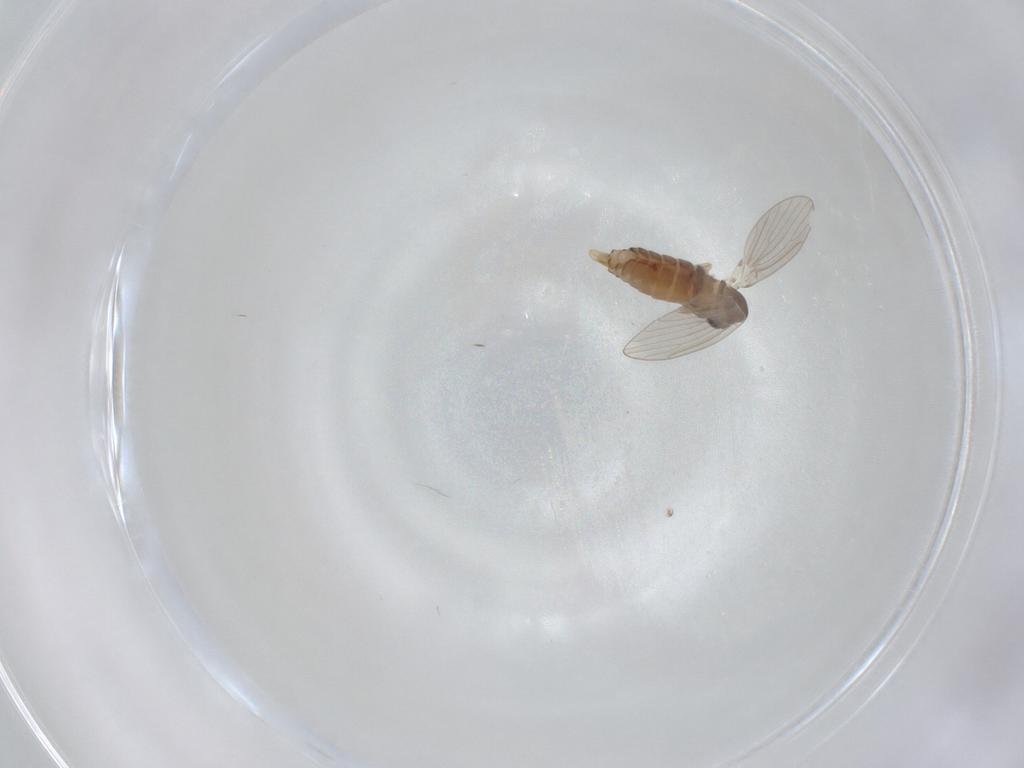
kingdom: Animalia
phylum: Arthropoda
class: Insecta
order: Diptera
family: Psychodidae
